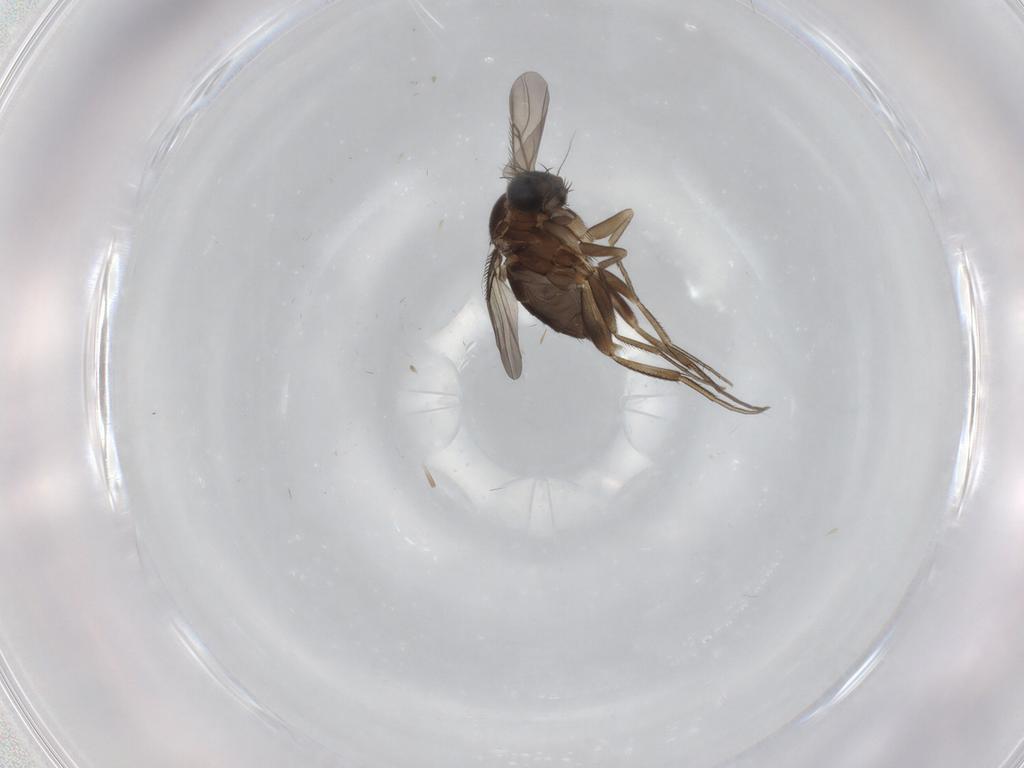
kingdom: Animalia
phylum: Arthropoda
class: Insecta
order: Diptera
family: Phoridae
